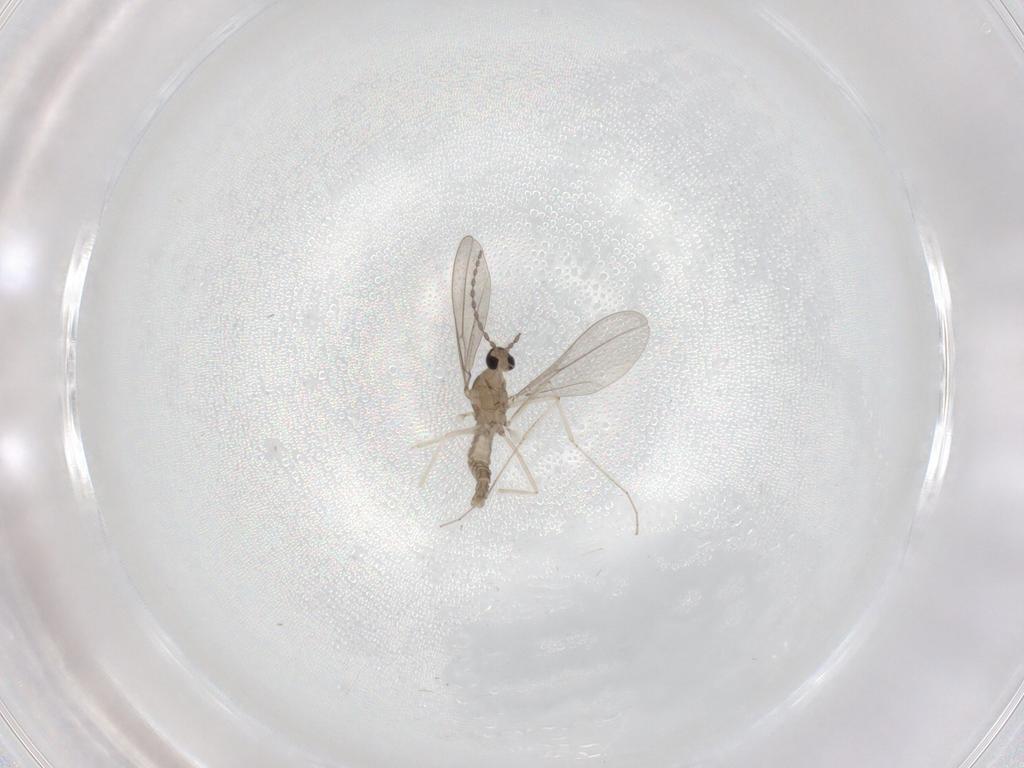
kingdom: Animalia
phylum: Arthropoda
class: Insecta
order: Diptera
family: Cecidomyiidae
